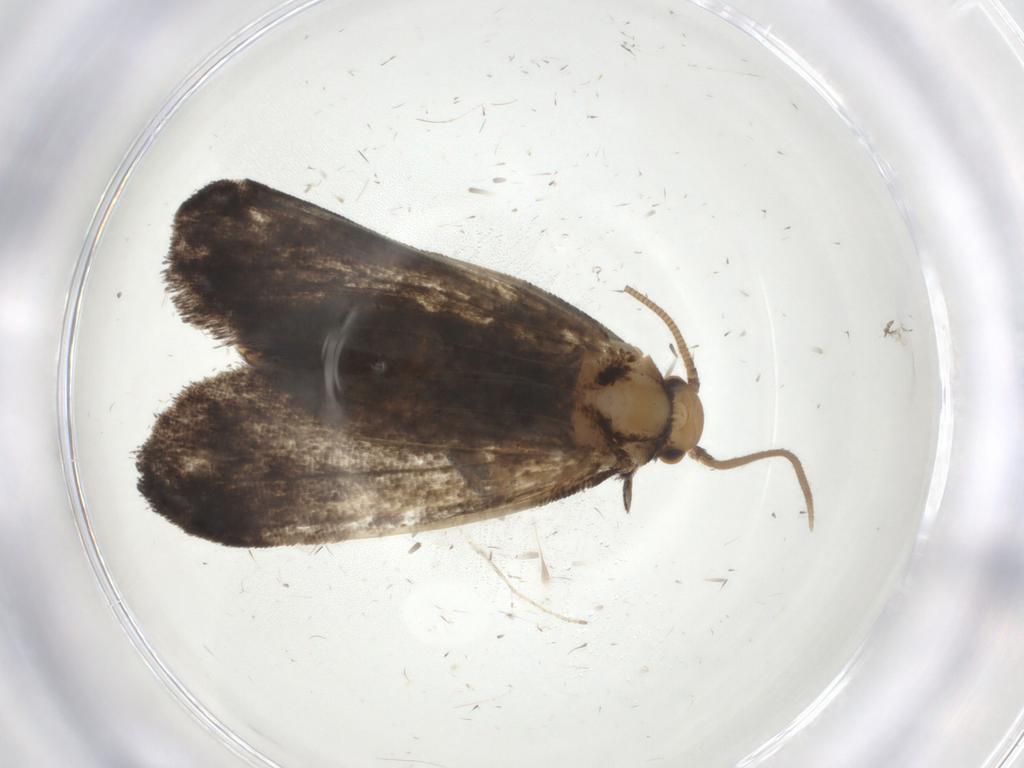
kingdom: Animalia
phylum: Arthropoda
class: Insecta
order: Lepidoptera
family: Dryadaulidae
